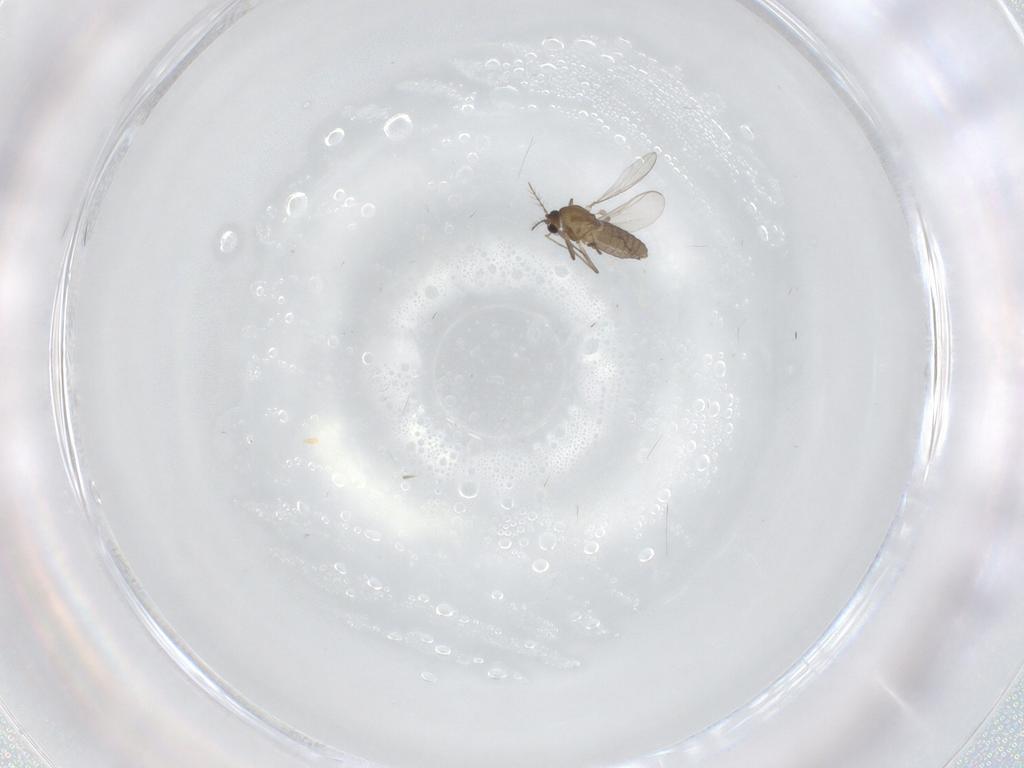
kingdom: Animalia
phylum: Arthropoda
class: Insecta
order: Diptera
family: Chironomidae
